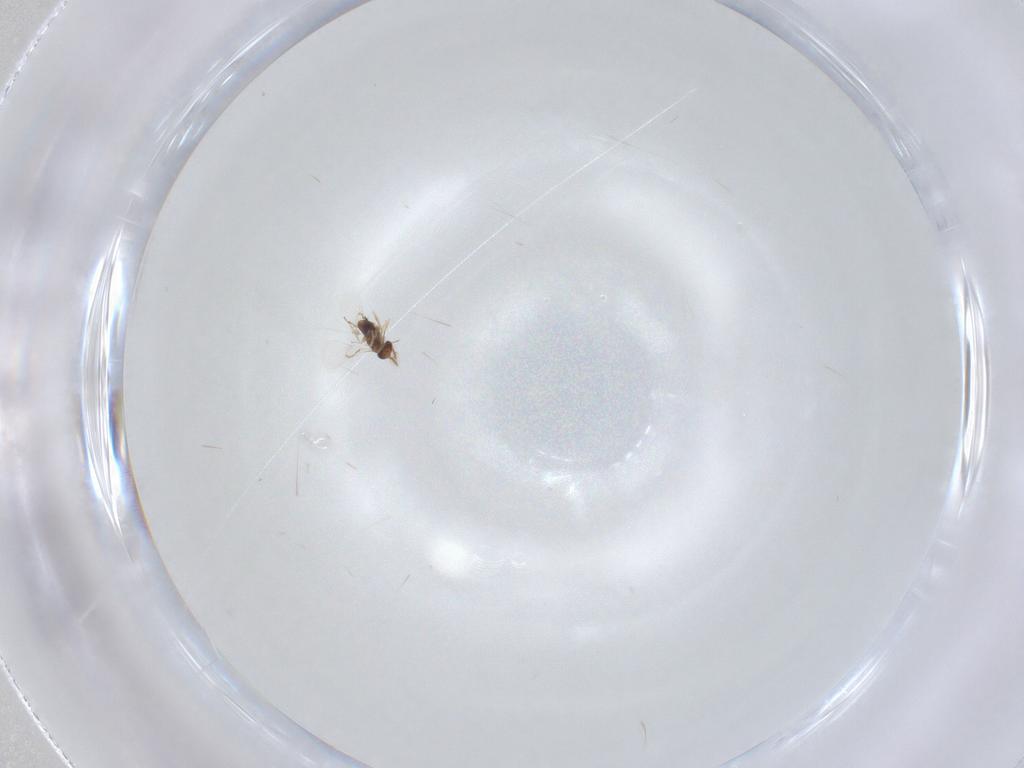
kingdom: Animalia
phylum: Arthropoda
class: Insecta
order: Hymenoptera
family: Trichogrammatidae
